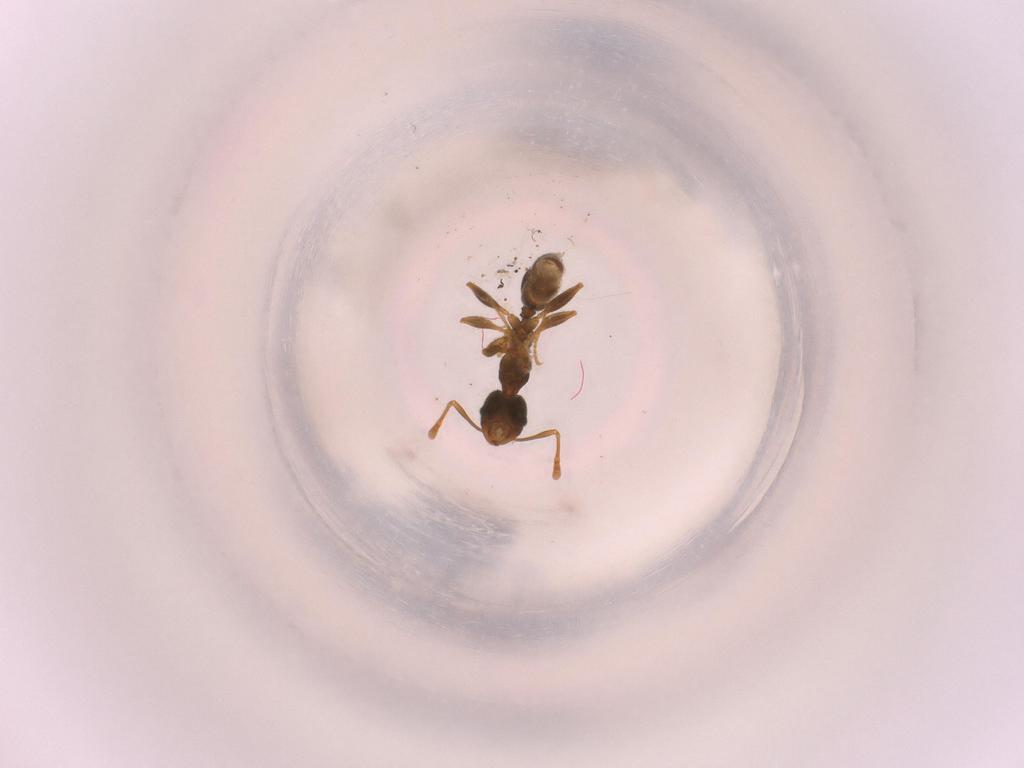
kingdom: Animalia
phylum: Arthropoda
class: Insecta
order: Hymenoptera
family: Formicidae
